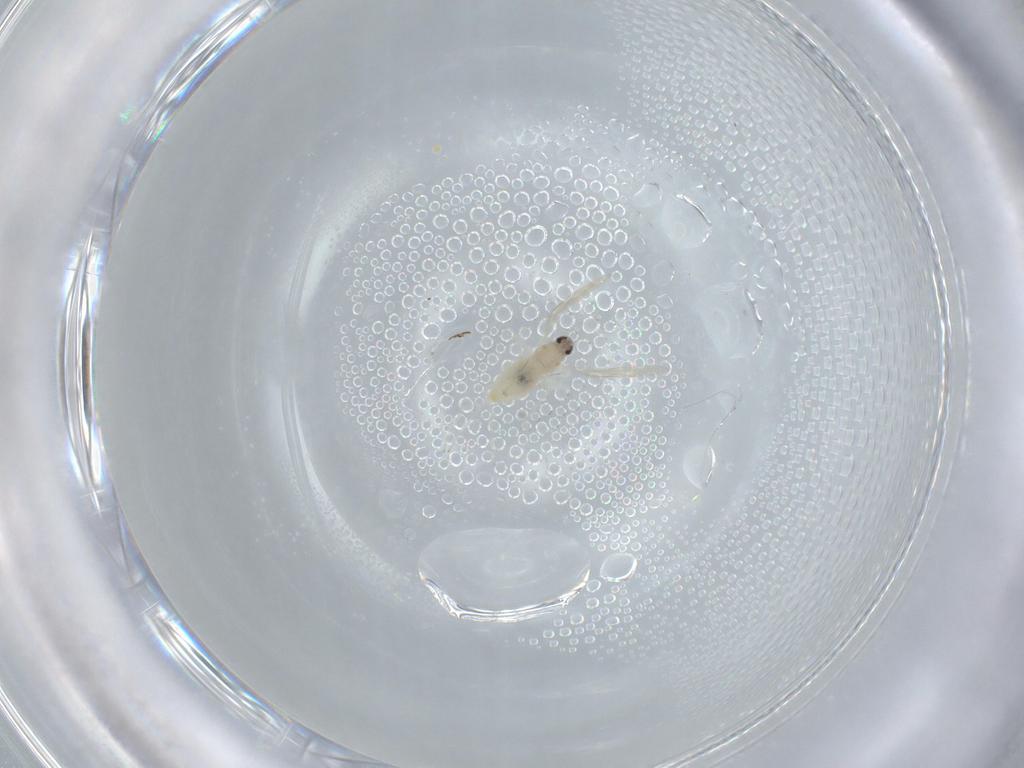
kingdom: Animalia
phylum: Arthropoda
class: Insecta
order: Diptera
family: Cecidomyiidae
